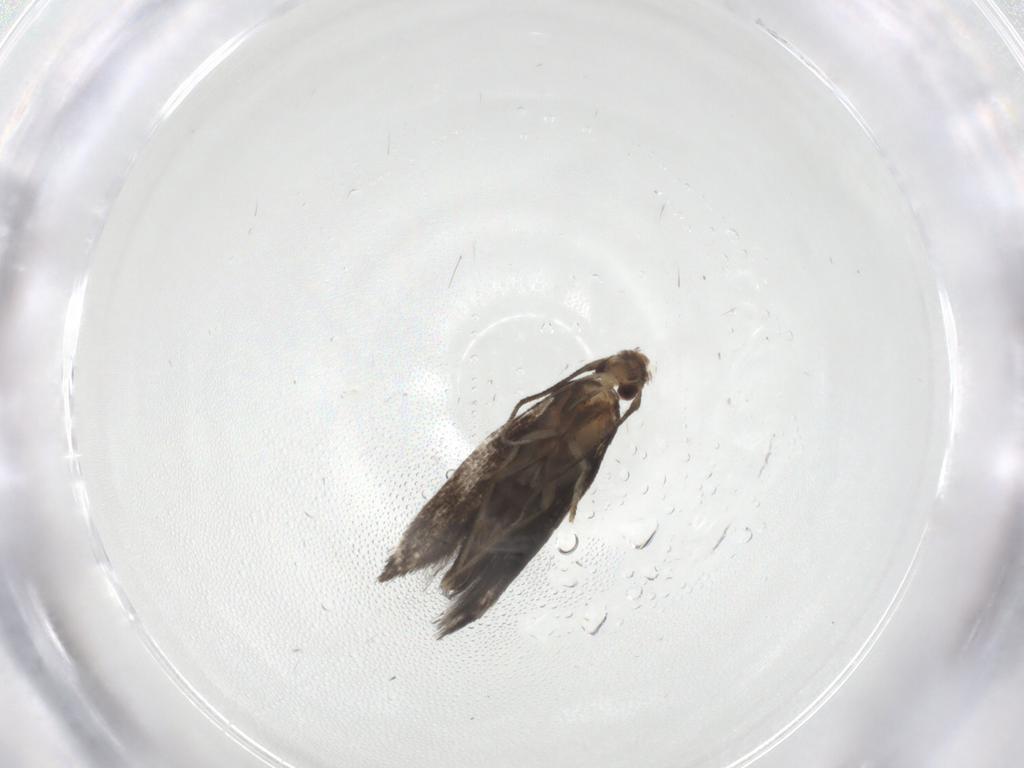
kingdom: Animalia
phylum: Arthropoda
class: Insecta
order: Lepidoptera
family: Gelechiidae
